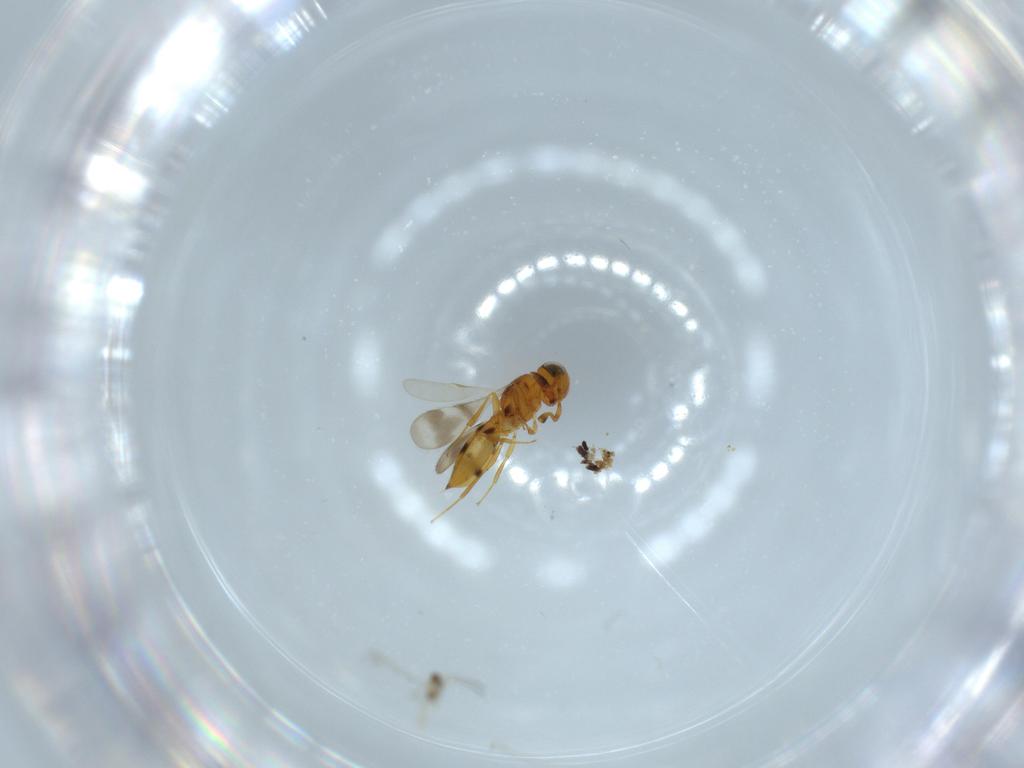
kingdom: Animalia
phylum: Arthropoda
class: Insecta
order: Hymenoptera
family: Scelionidae
